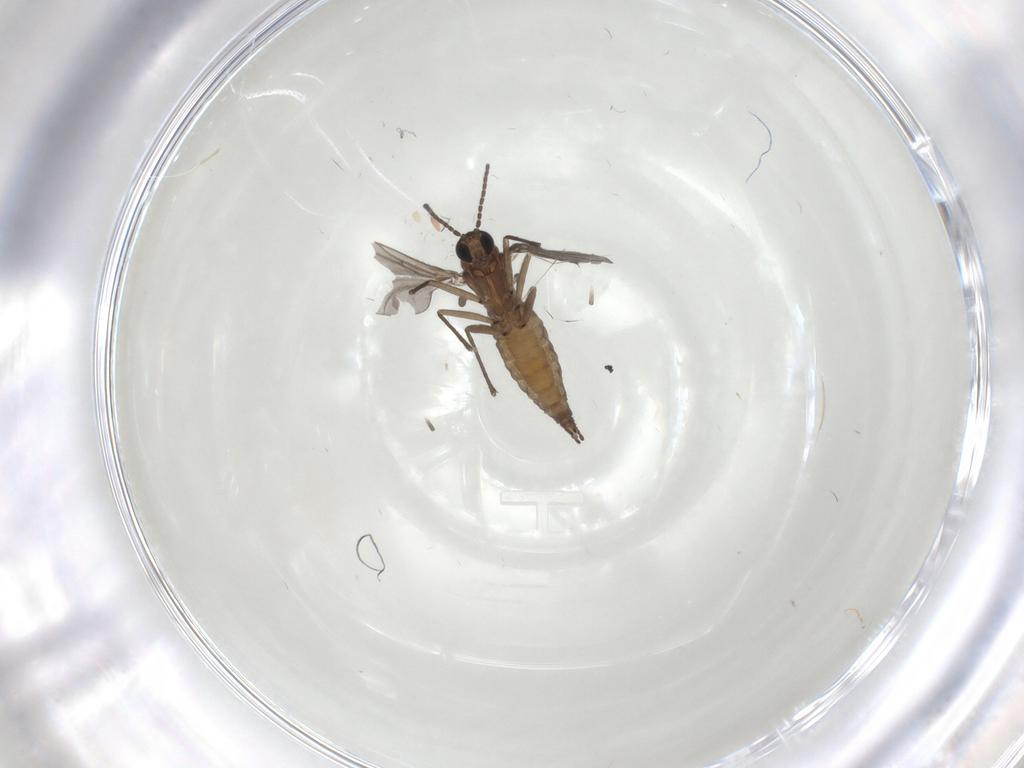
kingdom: Animalia
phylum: Arthropoda
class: Insecta
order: Diptera
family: Sciaridae
